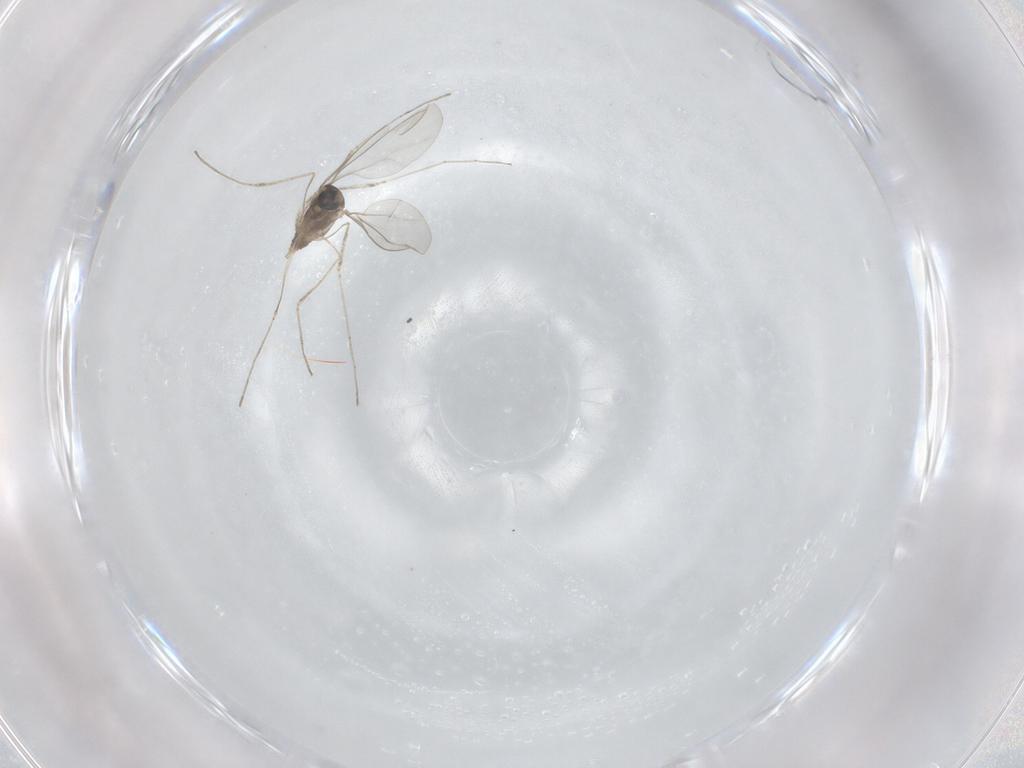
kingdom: Animalia
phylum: Arthropoda
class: Insecta
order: Diptera
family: Cecidomyiidae
